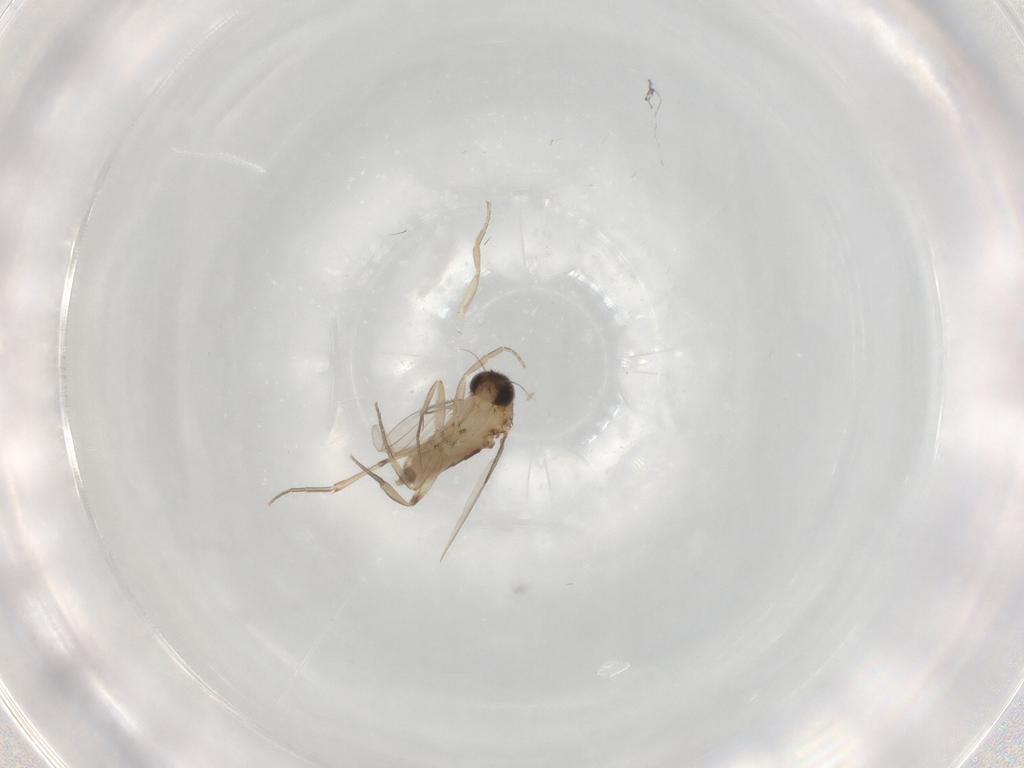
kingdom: Animalia
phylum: Arthropoda
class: Insecta
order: Diptera
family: Phoridae
